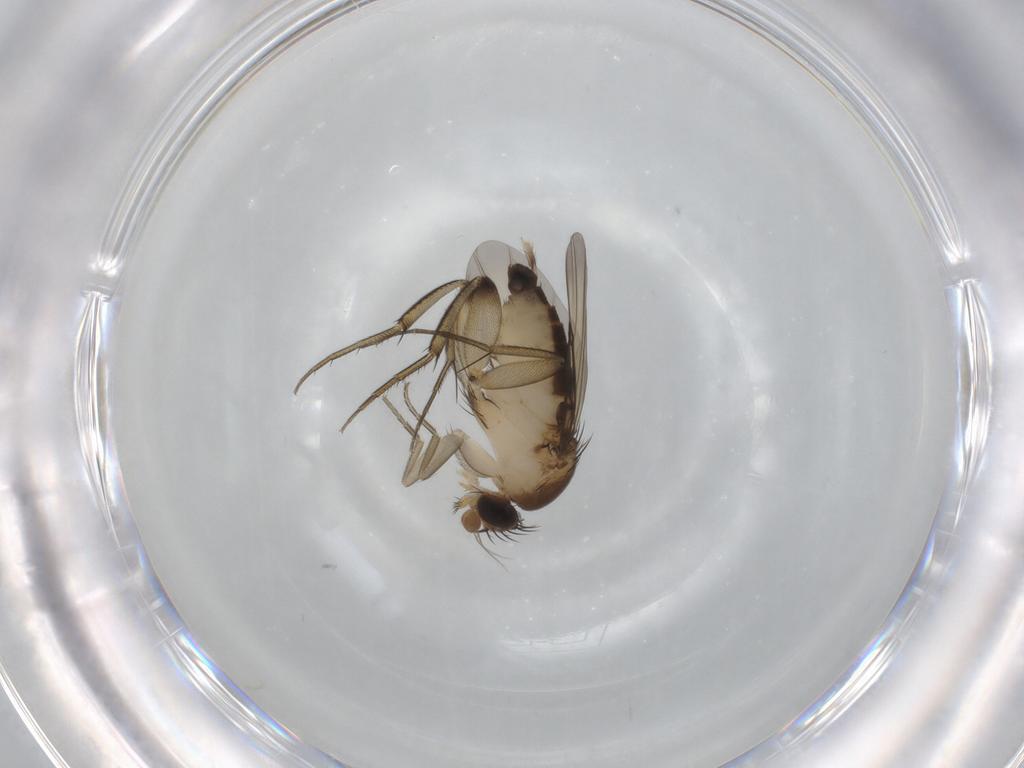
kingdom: Animalia
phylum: Arthropoda
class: Insecta
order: Diptera
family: Phoridae
